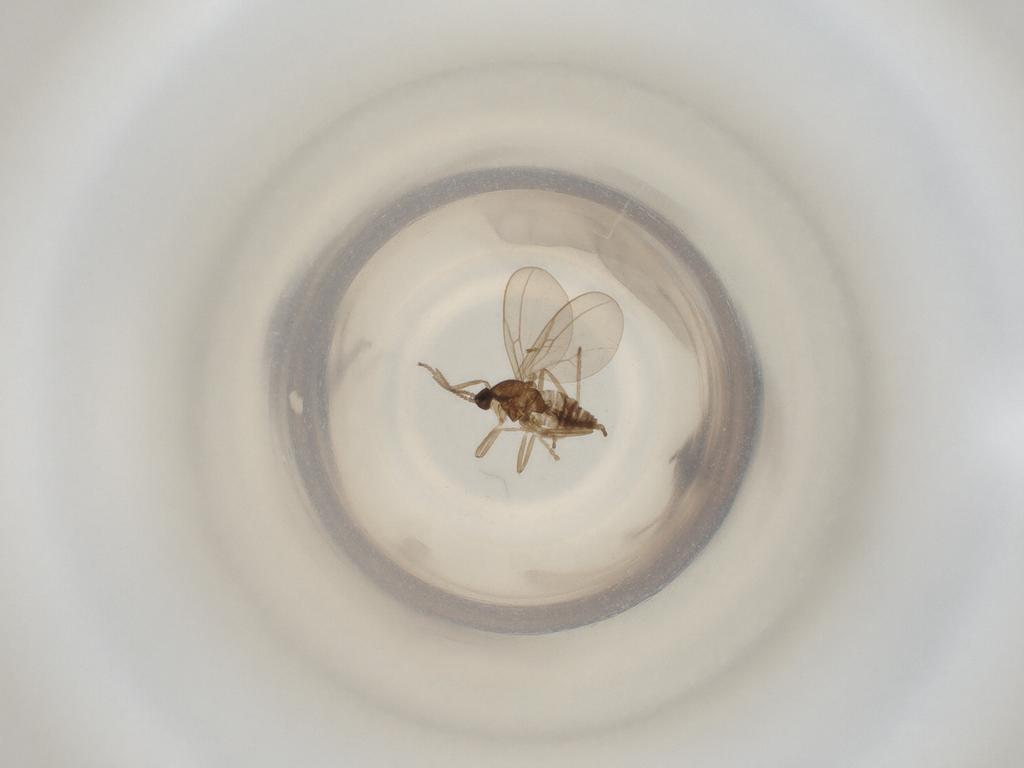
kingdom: Animalia
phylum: Arthropoda
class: Insecta
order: Diptera
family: Cecidomyiidae
